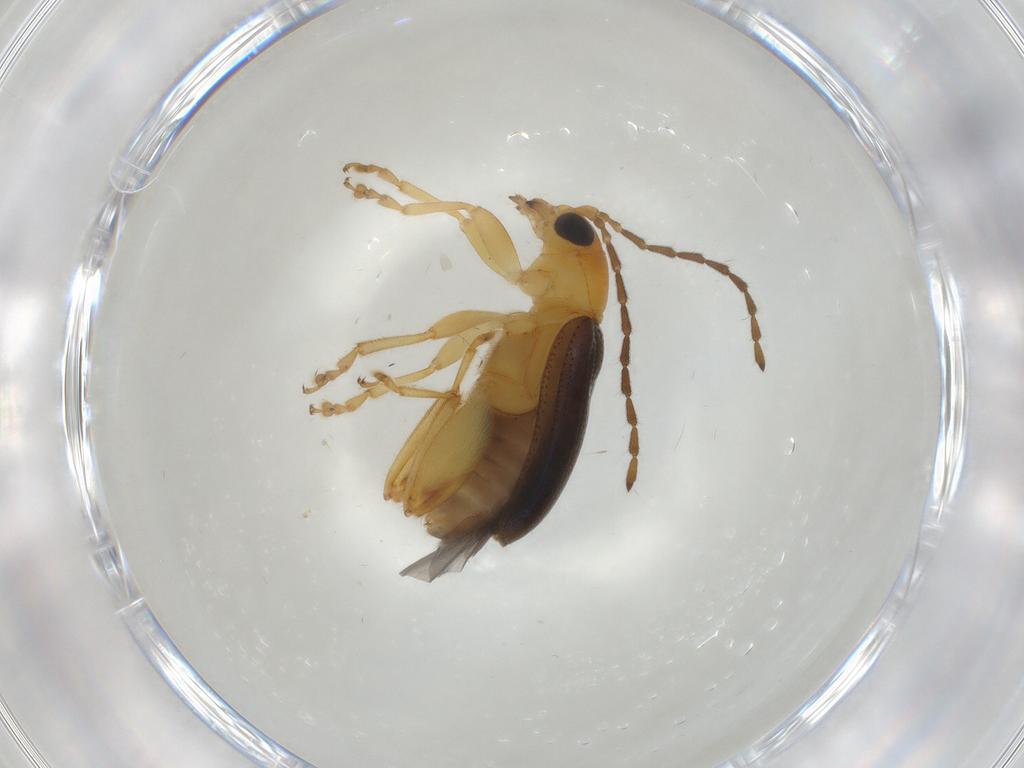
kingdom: Animalia
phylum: Arthropoda
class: Insecta
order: Coleoptera
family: Chrysomelidae
